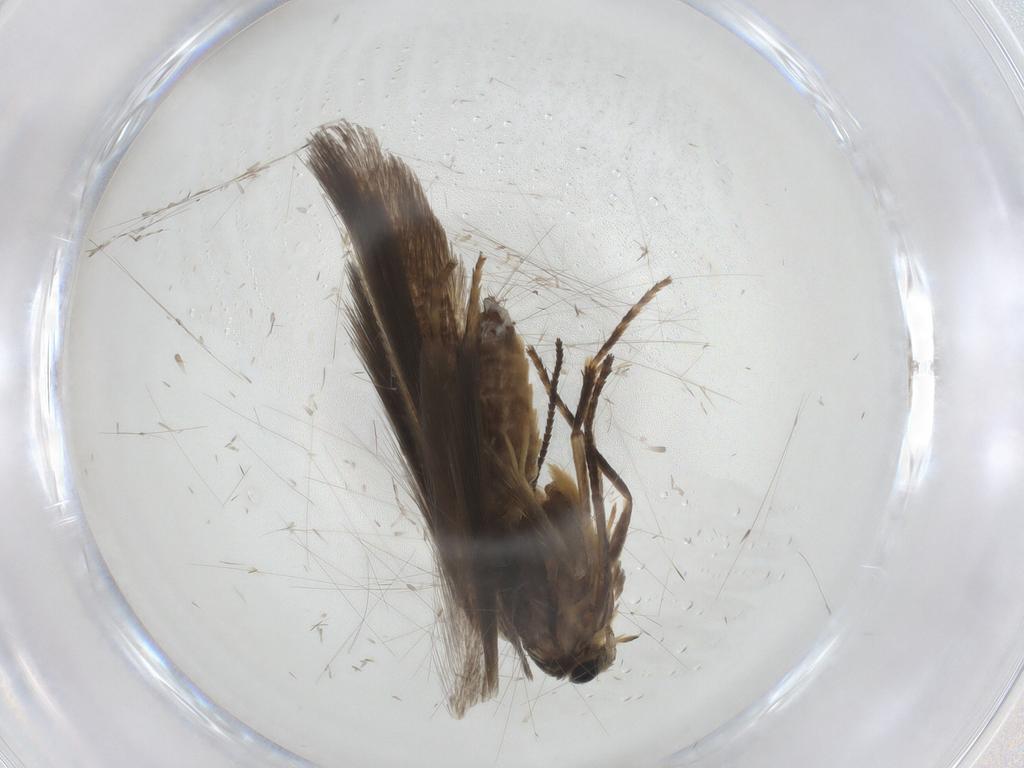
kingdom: Animalia
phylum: Arthropoda
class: Insecta
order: Lepidoptera
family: Nepticulidae
